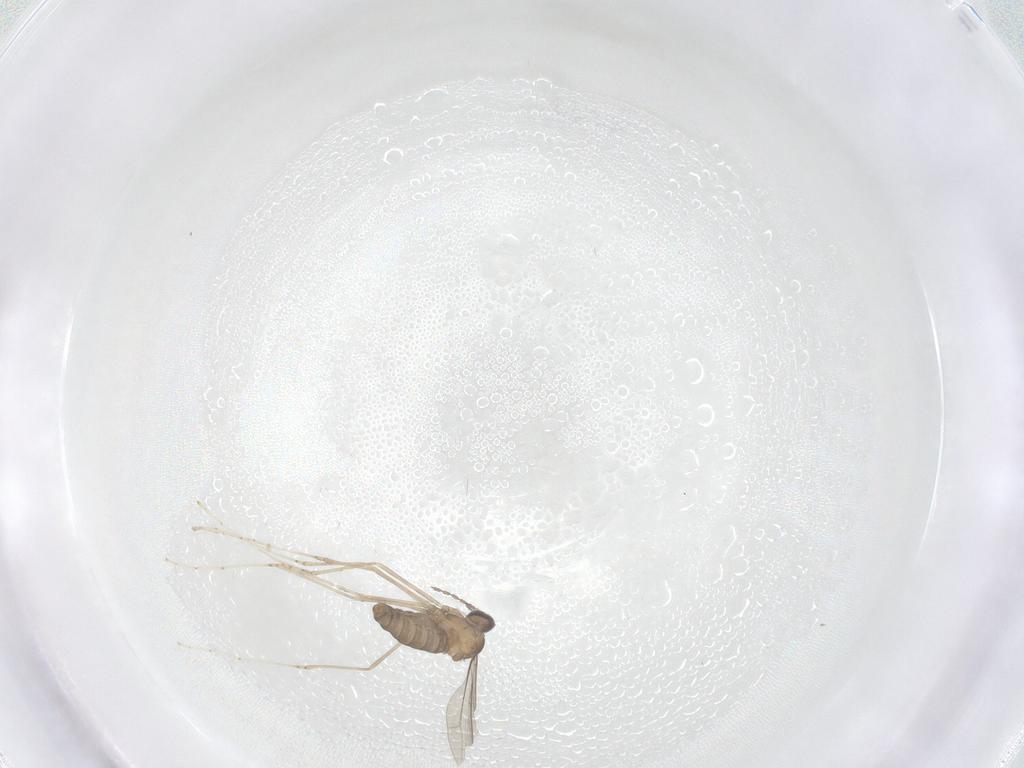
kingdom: Animalia
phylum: Arthropoda
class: Insecta
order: Diptera
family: Cecidomyiidae
